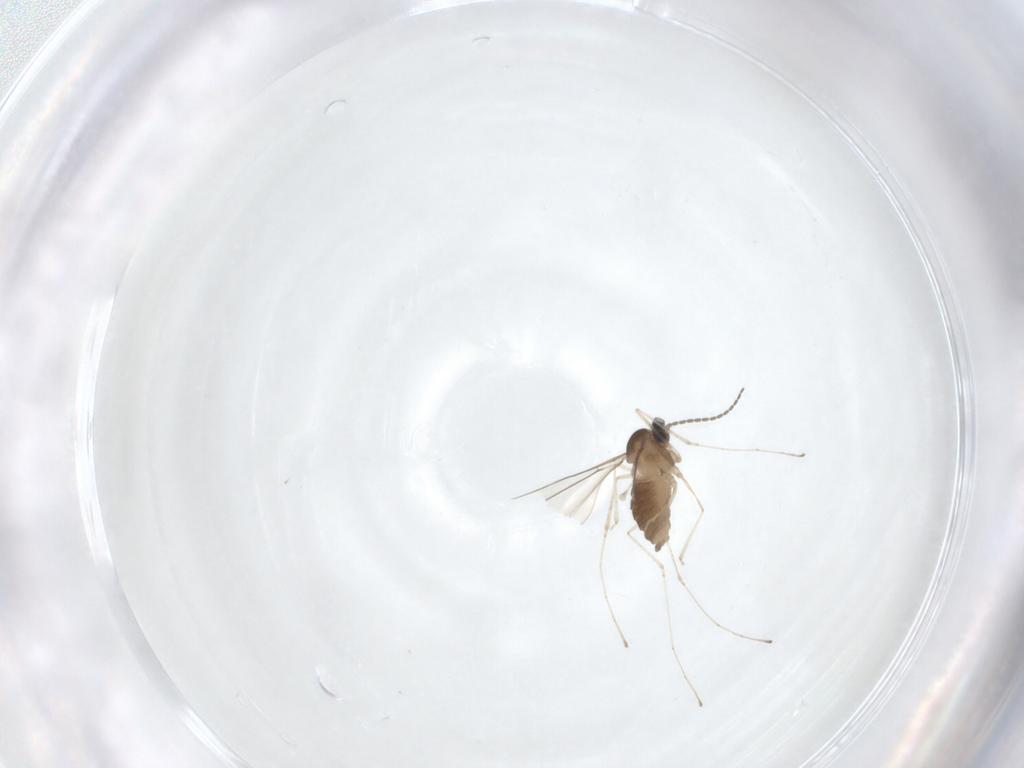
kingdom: Animalia
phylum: Arthropoda
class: Insecta
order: Diptera
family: Cecidomyiidae
